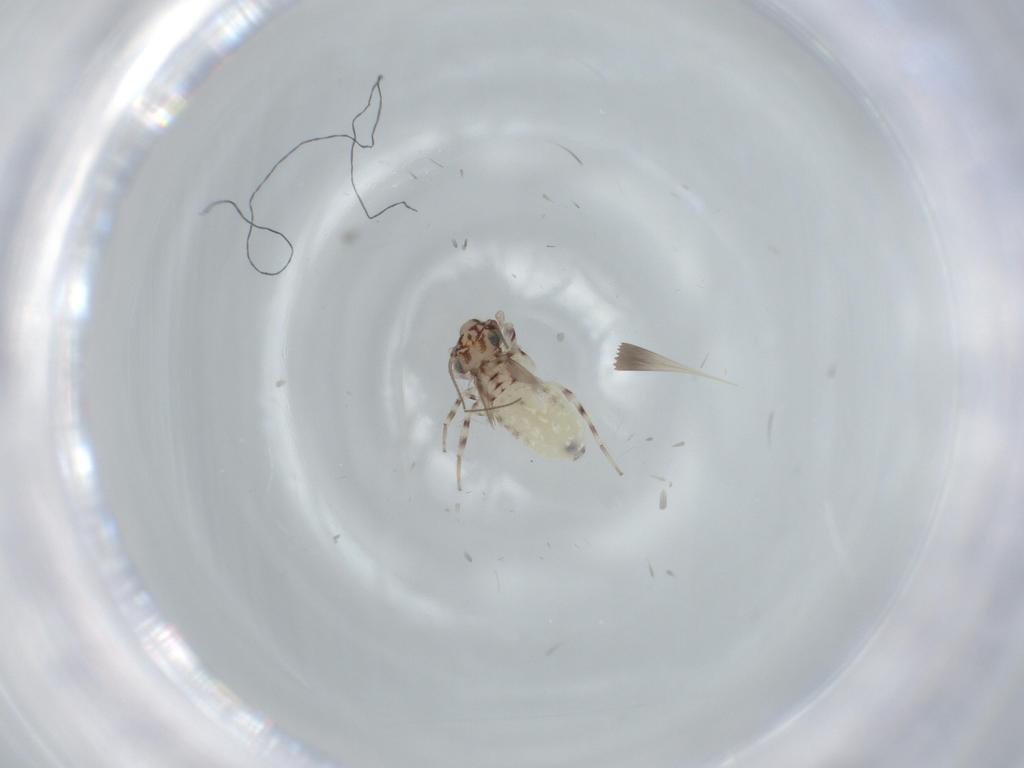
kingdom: Animalia
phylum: Arthropoda
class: Insecta
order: Psocodea
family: Lepidopsocidae
